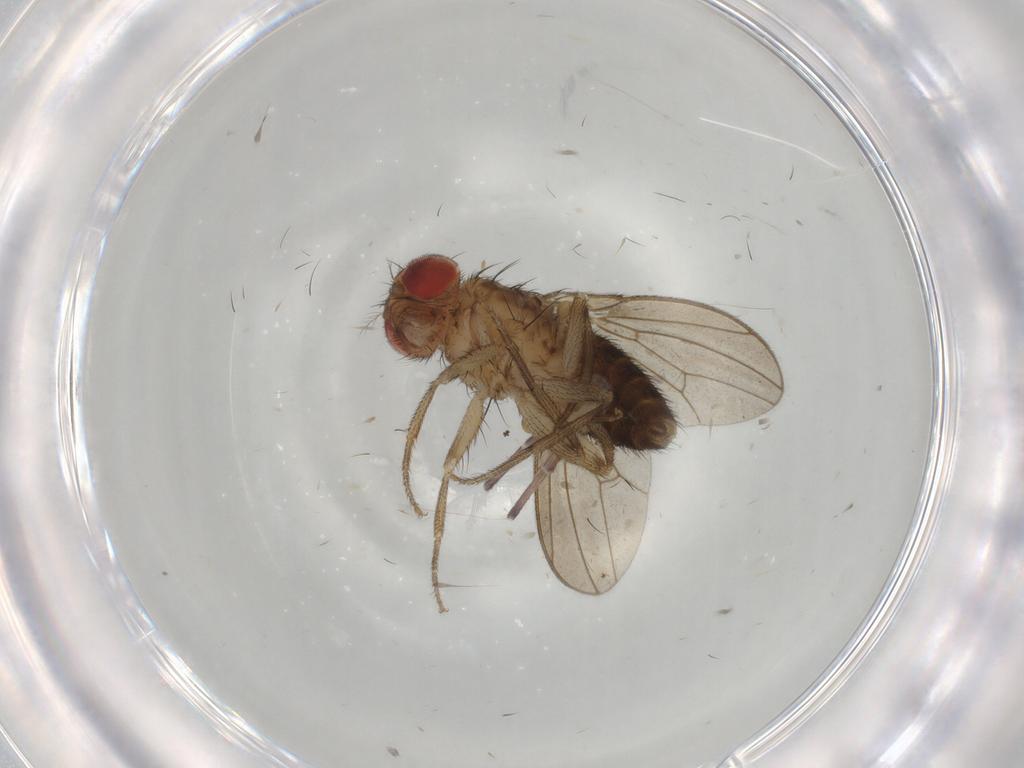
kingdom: Animalia
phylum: Arthropoda
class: Insecta
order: Diptera
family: Drosophilidae
